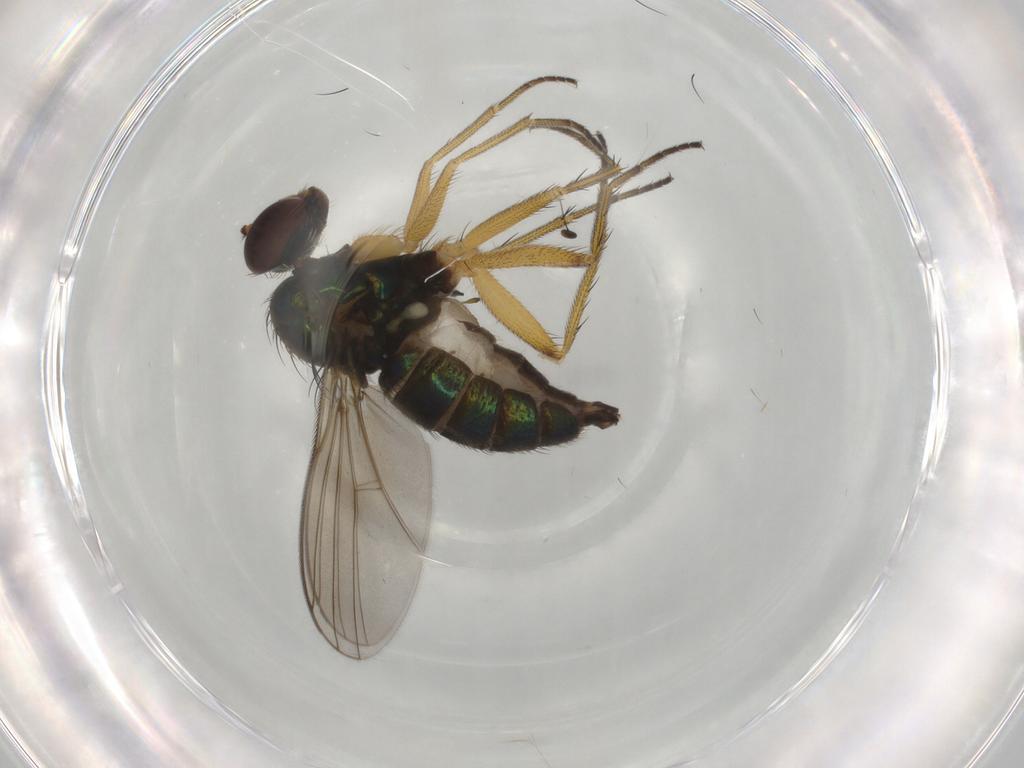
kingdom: Animalia
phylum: Arthropoda
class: Insecta
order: Diptera
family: Dolichopodidae
